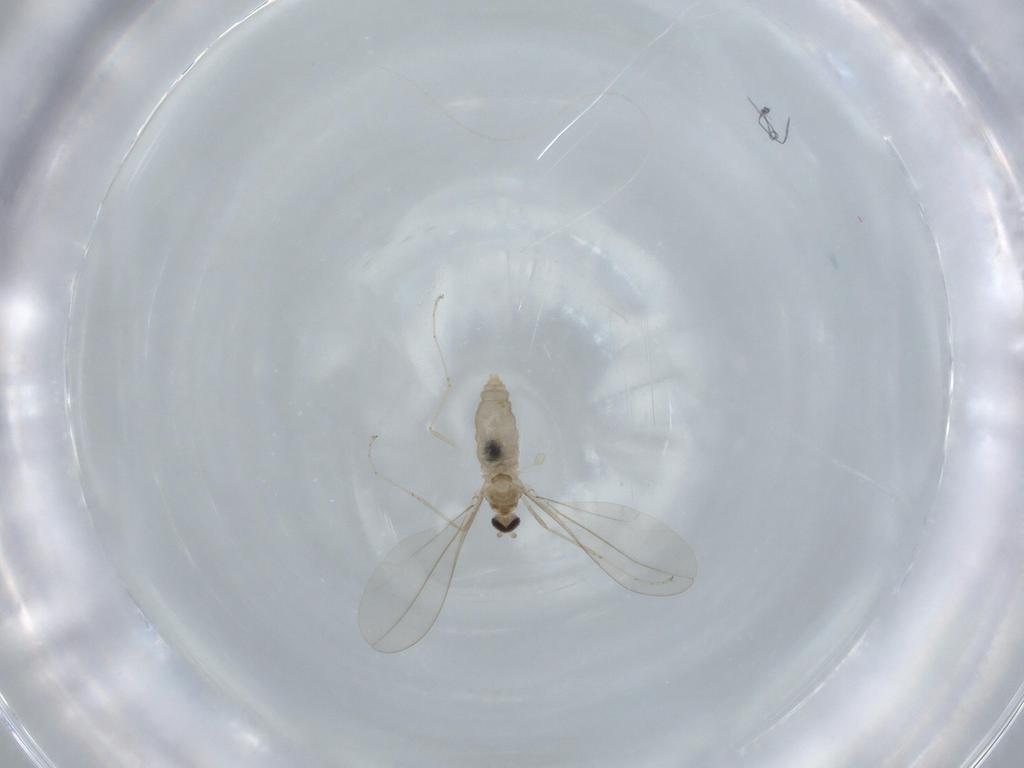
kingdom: Animalia
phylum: Arthropoda
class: Insecta
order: Diptera
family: Cecidomyiidae
